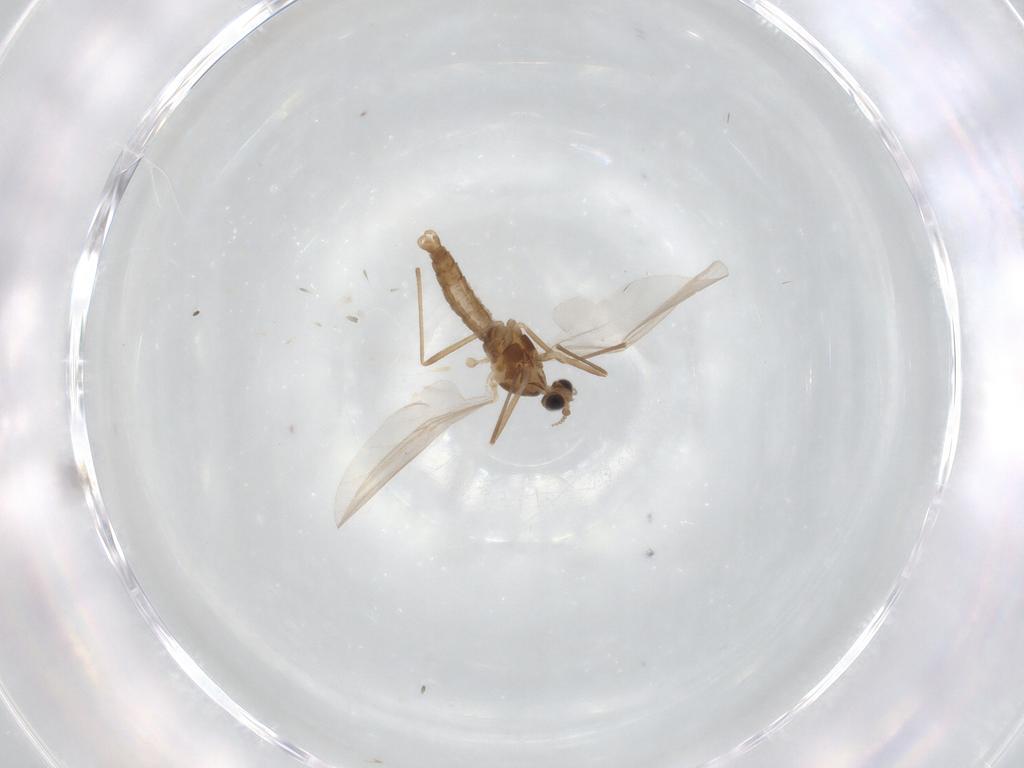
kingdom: Animalia
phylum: Arthropoda
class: Insecta
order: Diptera
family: Cecidomyiidae
